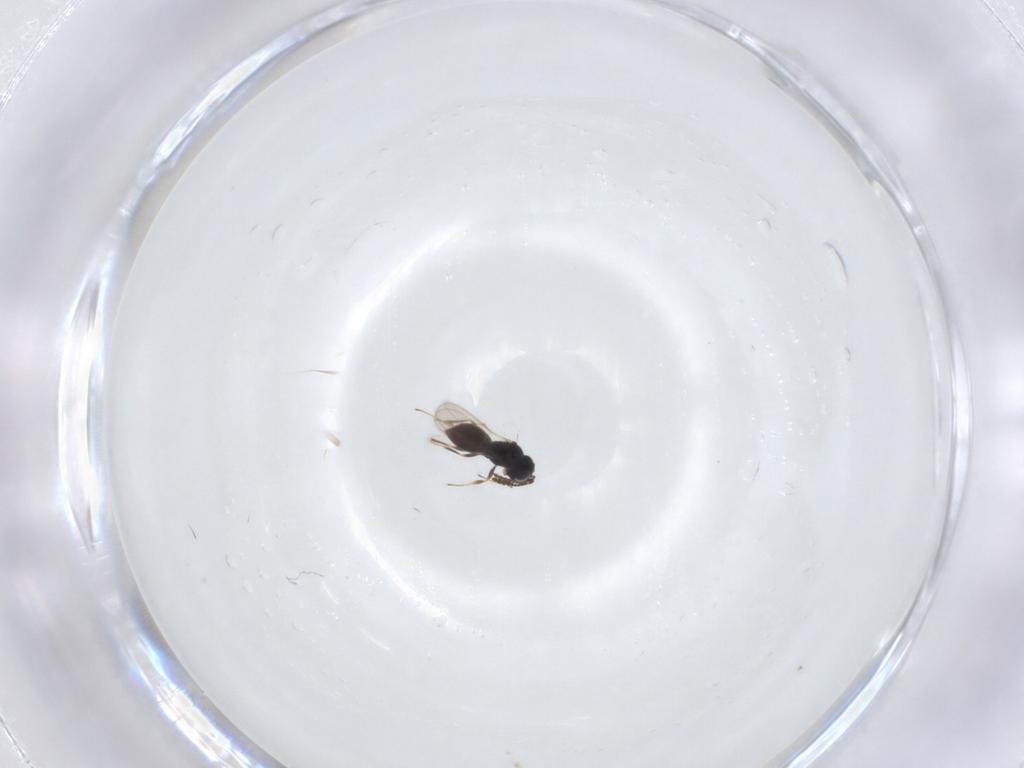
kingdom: Animalia
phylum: Arthropoda
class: Insecta
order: Hymenoptera
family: Scelionidae
